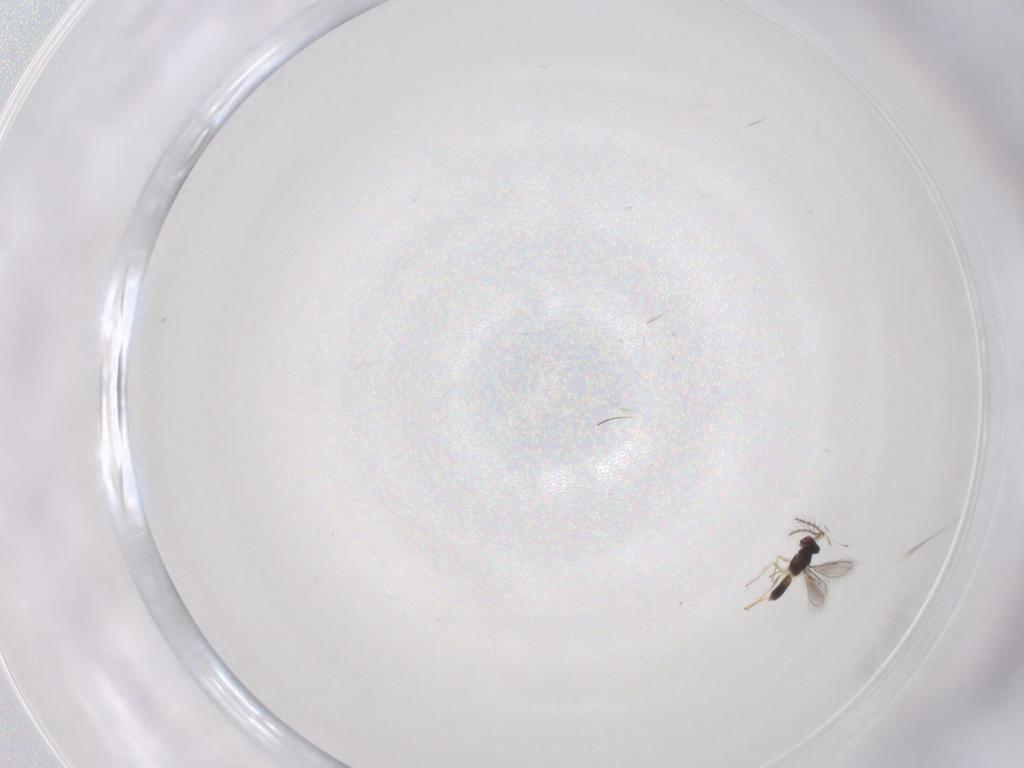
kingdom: Animalia
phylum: Arthropoda
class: Insecta
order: Hymenoptera
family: Eulophidae
